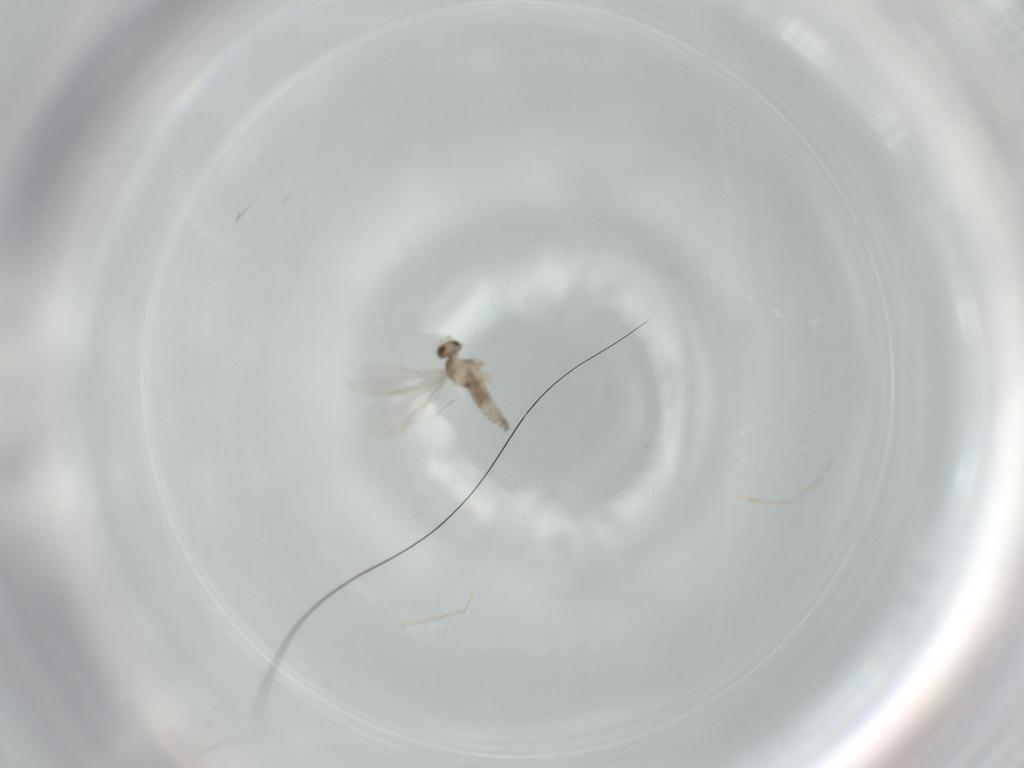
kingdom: Animalia
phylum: Arthropoda
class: Insecta
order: Diptera
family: Cecidomyiidae
